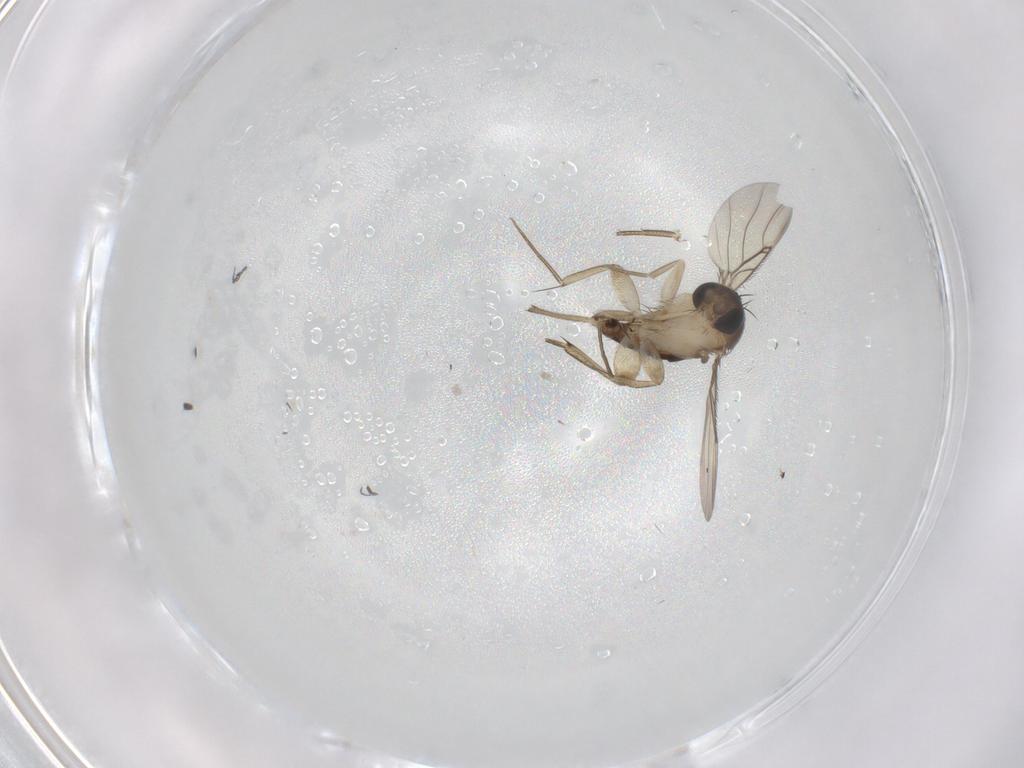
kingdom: Animalia
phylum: Arthropoda
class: Insecta
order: Diptera
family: Phoridae
